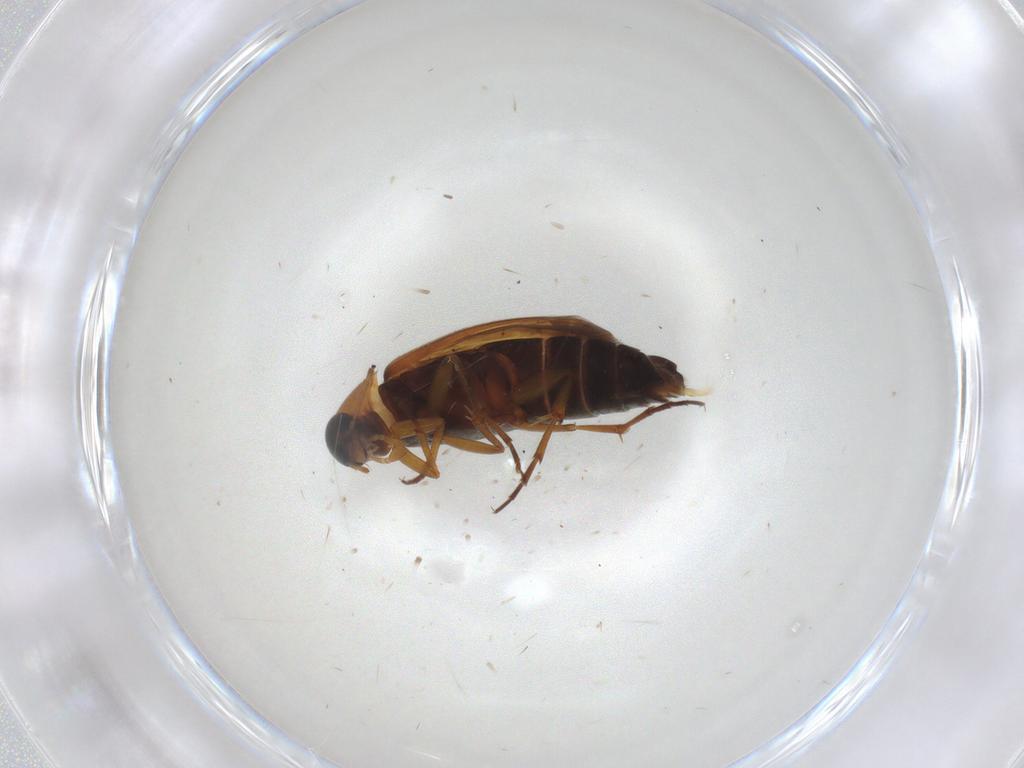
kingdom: Animalia
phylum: Arthropoda
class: Insecta
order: Coleoptera
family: Scraptiidae
